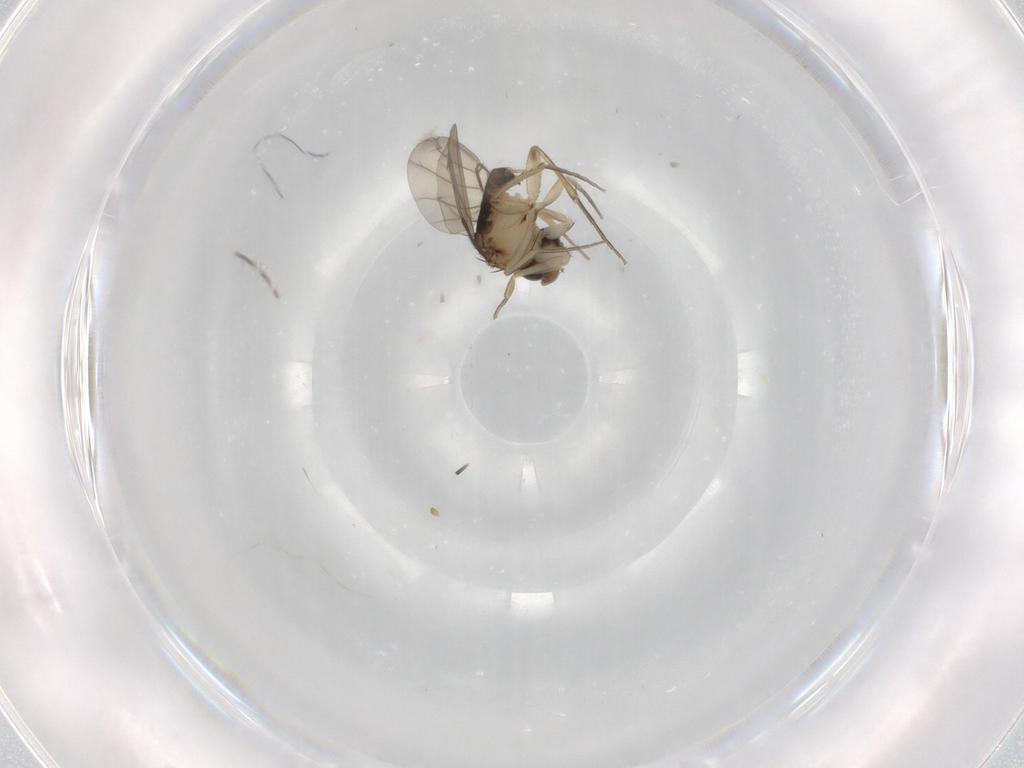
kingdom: Animalia
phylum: Arthropoda
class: Insecta
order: Diptera
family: Phoridae
